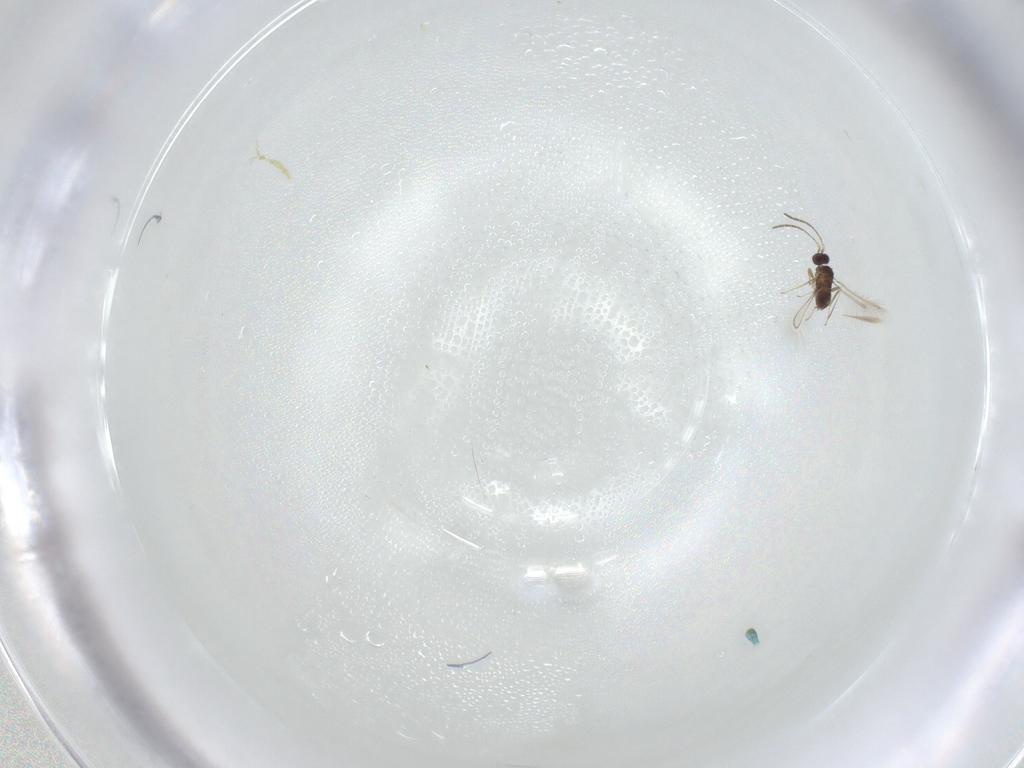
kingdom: Animalia
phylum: Arthropoda
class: Insecta
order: Hymenoptera
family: Mymaridae
